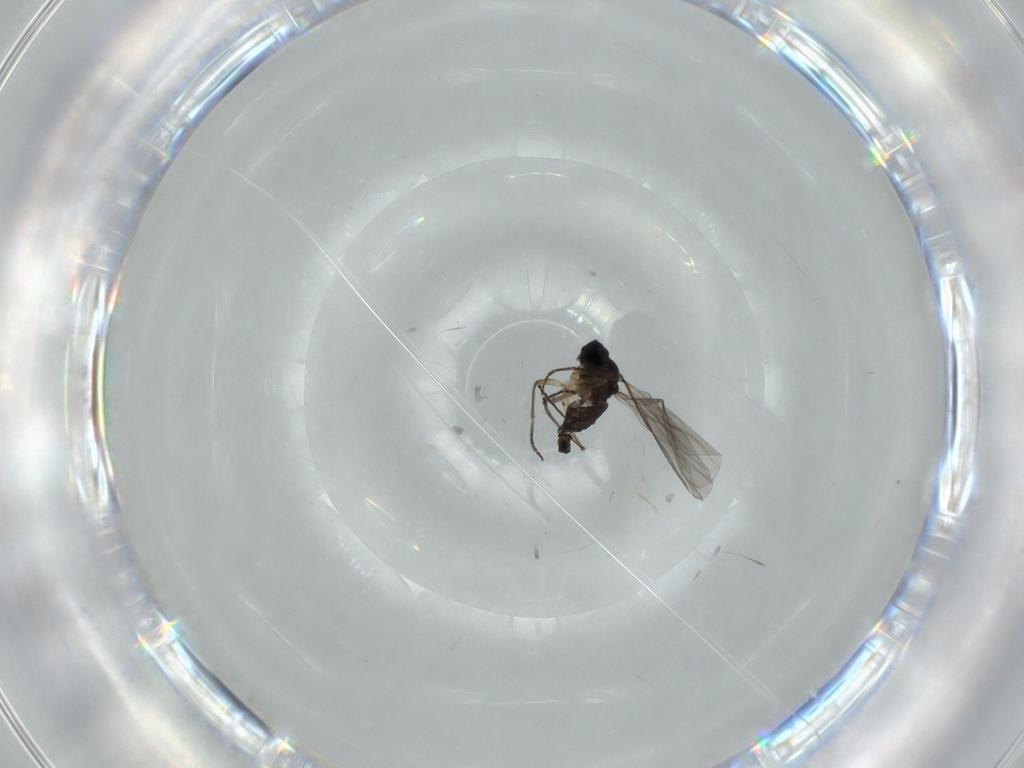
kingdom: Animalia
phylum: Arthropoda
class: Insecta
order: Diptera
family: Sciaridae
